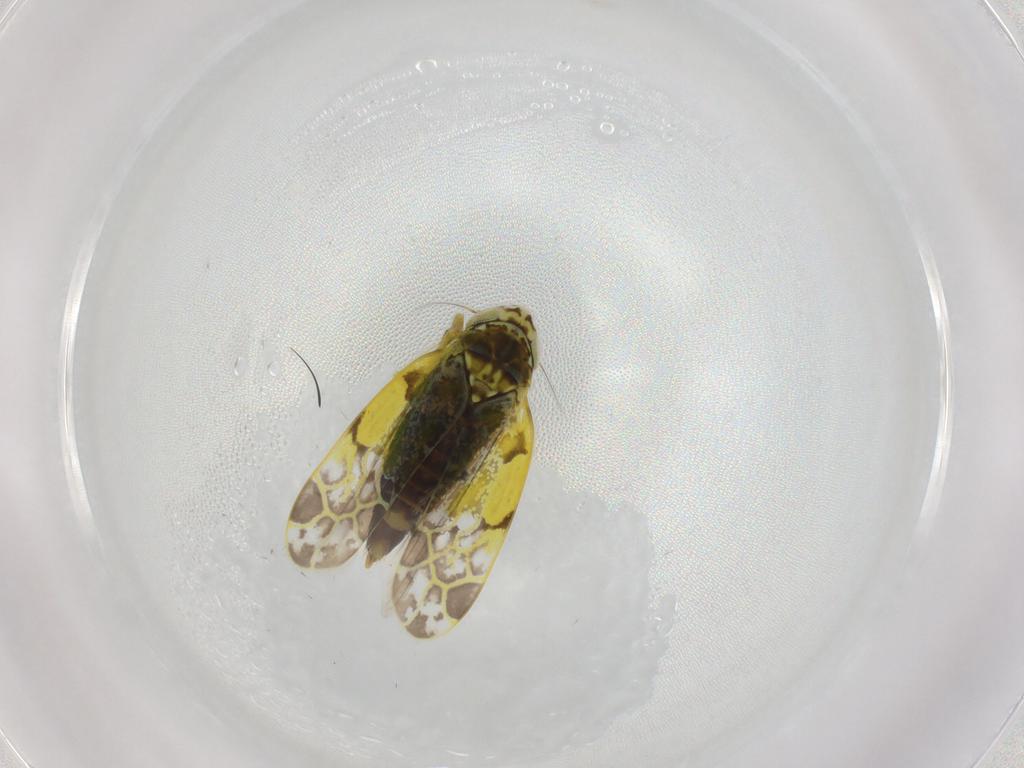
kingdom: Animalia
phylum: Arthropoda
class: Insecta
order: Hemiptera
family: Cicadellidae
